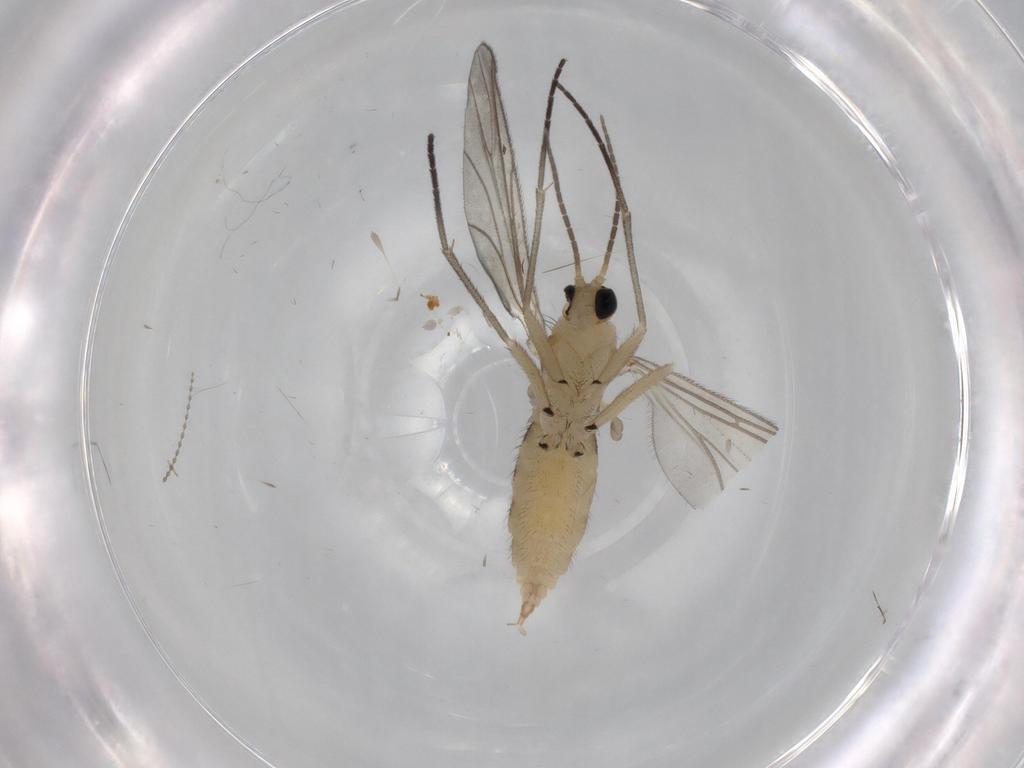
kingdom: Animalia
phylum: Arthropoda
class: Insecta
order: Diptera
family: Sciaridae
